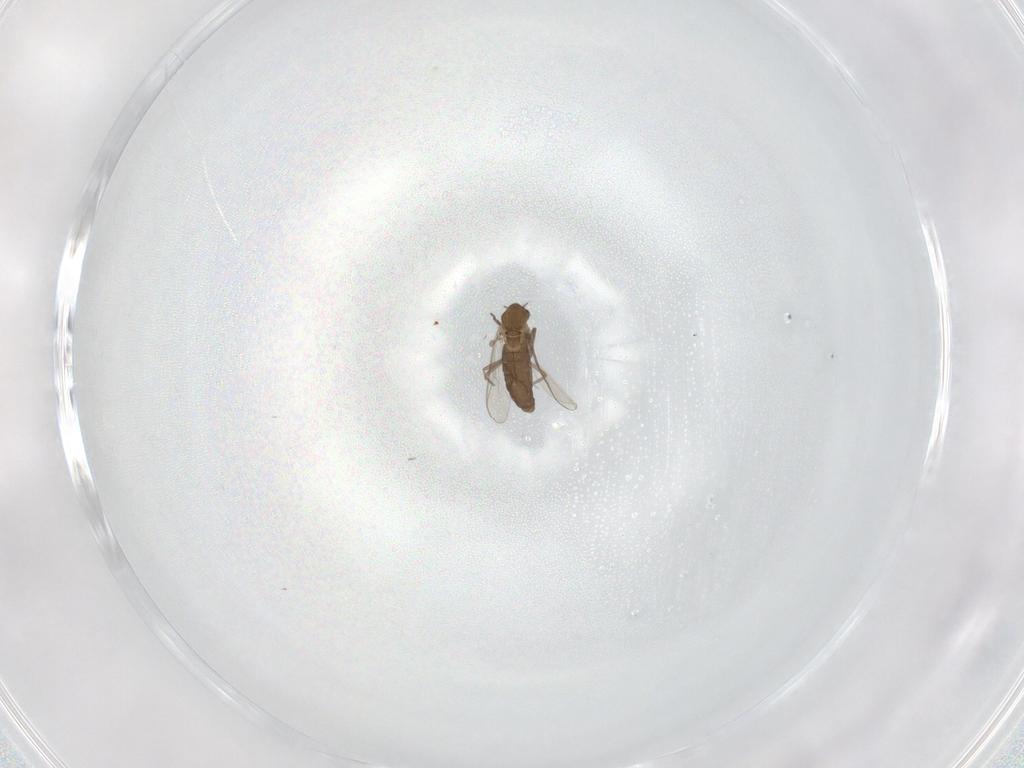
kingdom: Animalia
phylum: Arthropoda
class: Insecta
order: Diptera
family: Chironomidae
